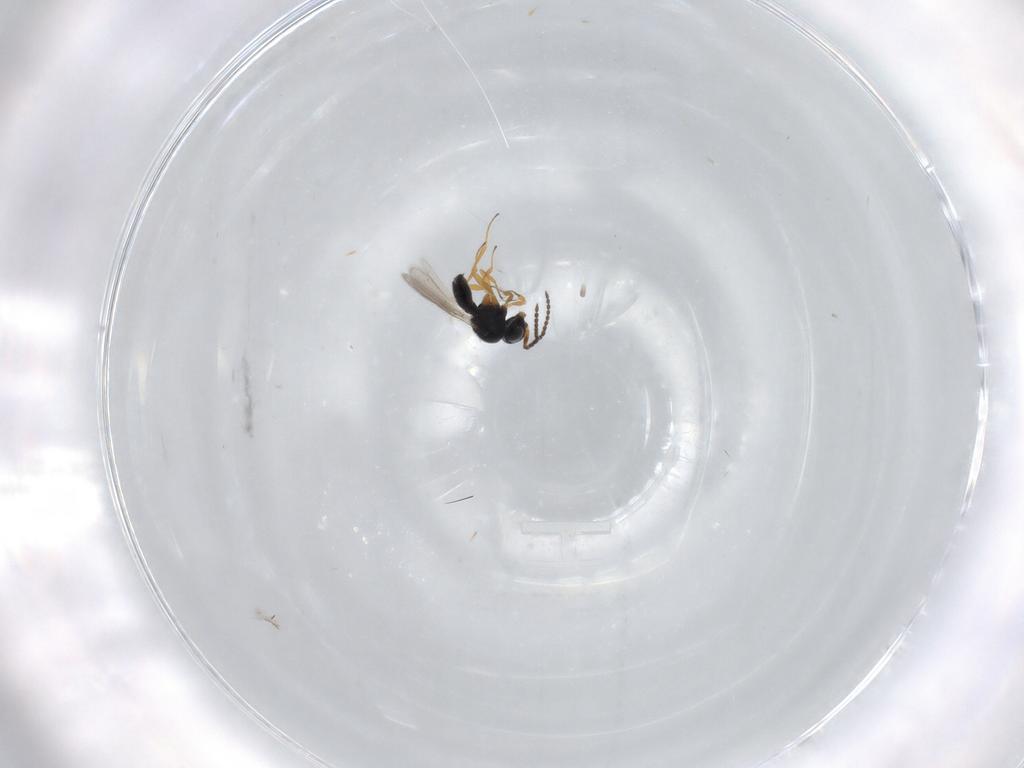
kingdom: Animalia
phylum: Arthropoda
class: Insecta
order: Hymenoptera
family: Scelionidae
